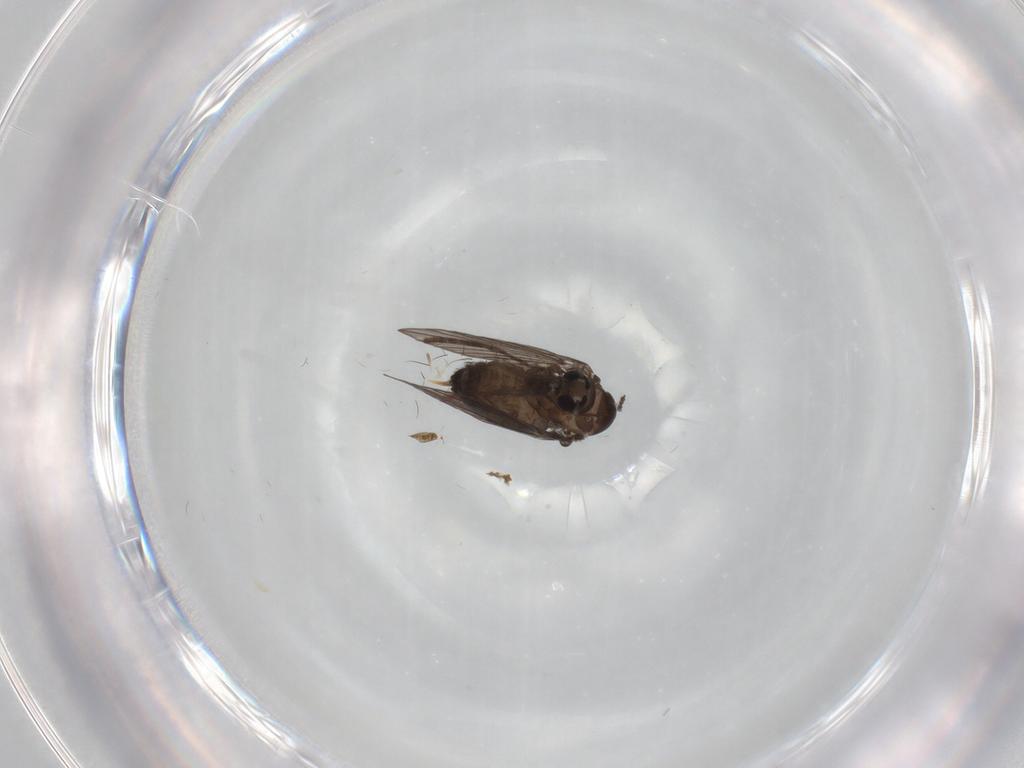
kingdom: Animalia
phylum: Arthropoda
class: Insecta
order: Diptera
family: Psychodidae
